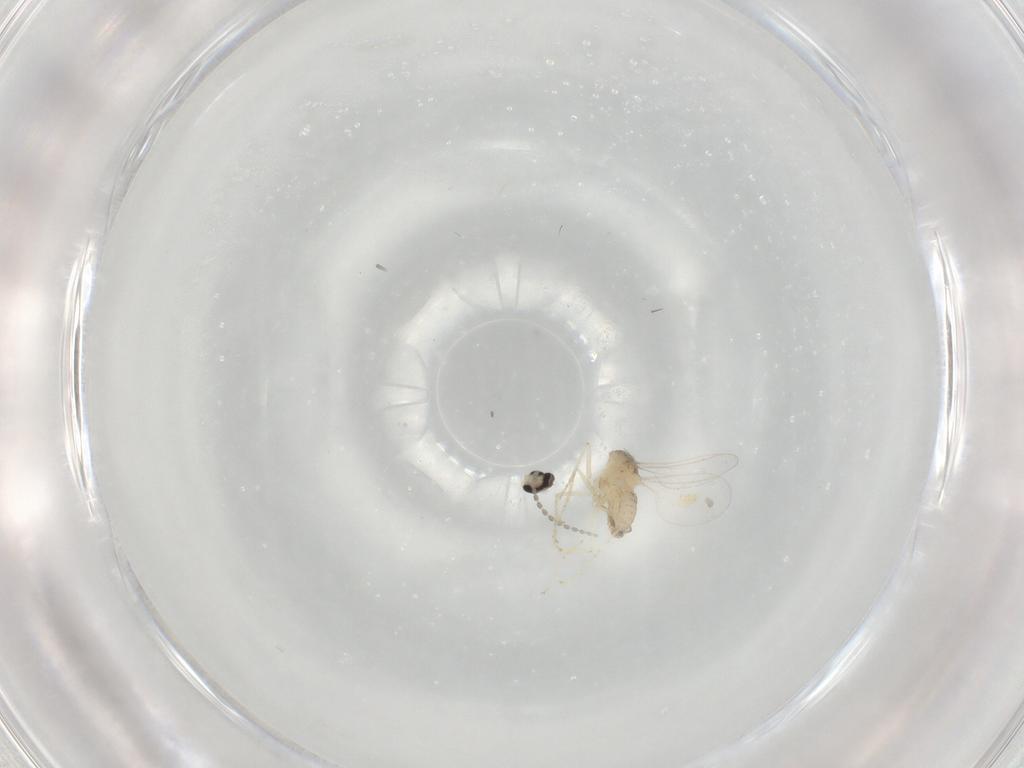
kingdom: Animalia
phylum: Arthropoda
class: Insecta
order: Diptera
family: Cecidomyiidae
